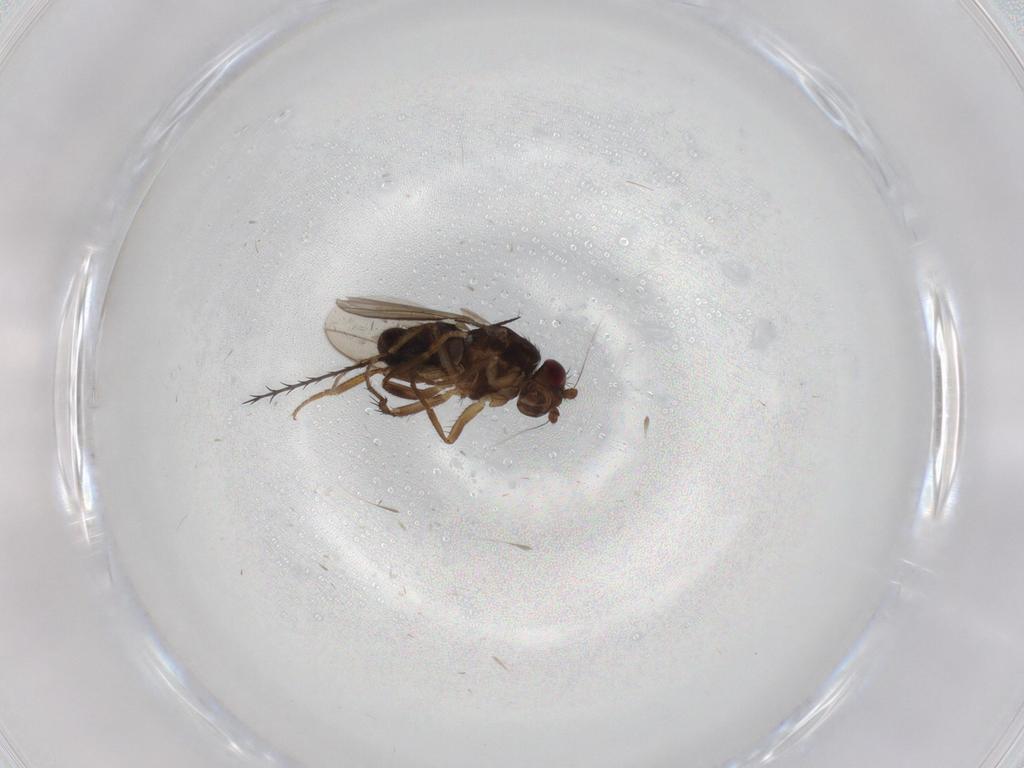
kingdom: Animalia
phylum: Arthropoda
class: Insecta
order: Diptera
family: Sphaeroceridae
